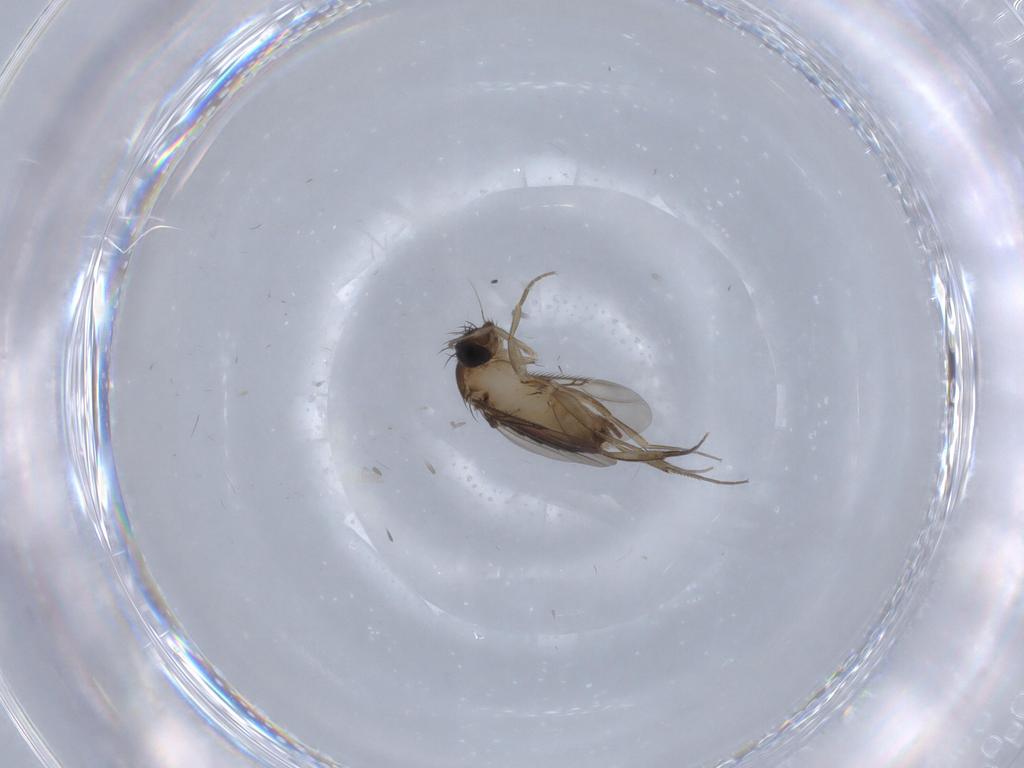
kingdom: Animalia
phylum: Arthropoda
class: Insecta
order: Diptera
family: Phoridae
